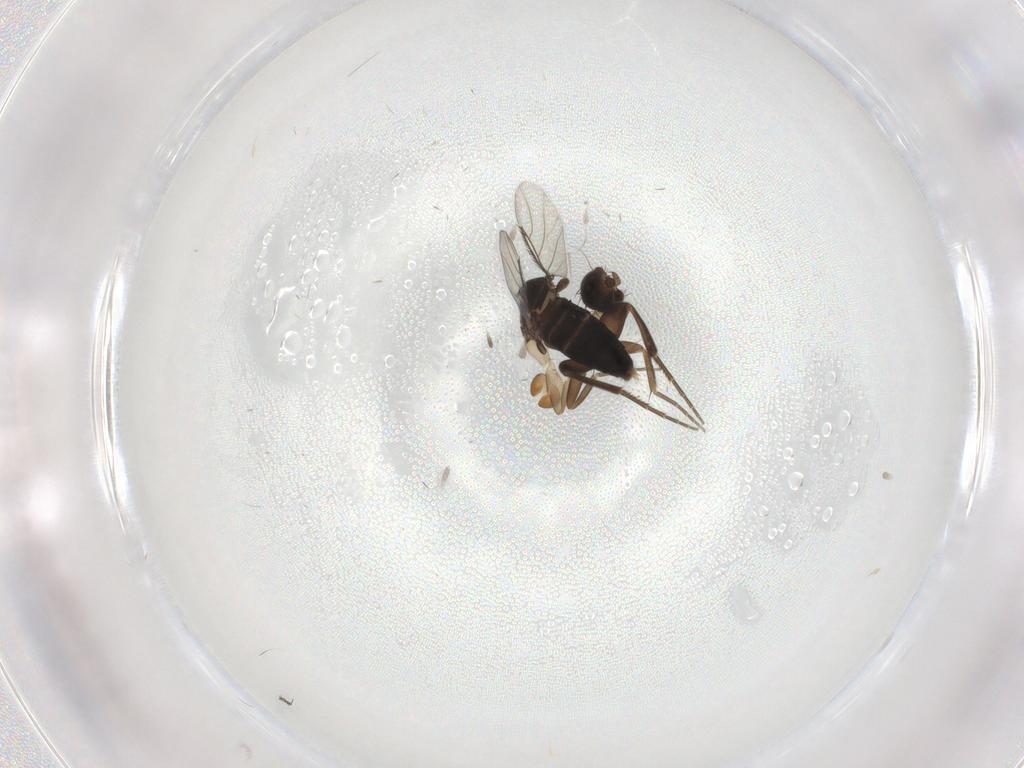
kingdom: Animalia
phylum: Arthropoda
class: Insecta
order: Diptera
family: Phoridae
